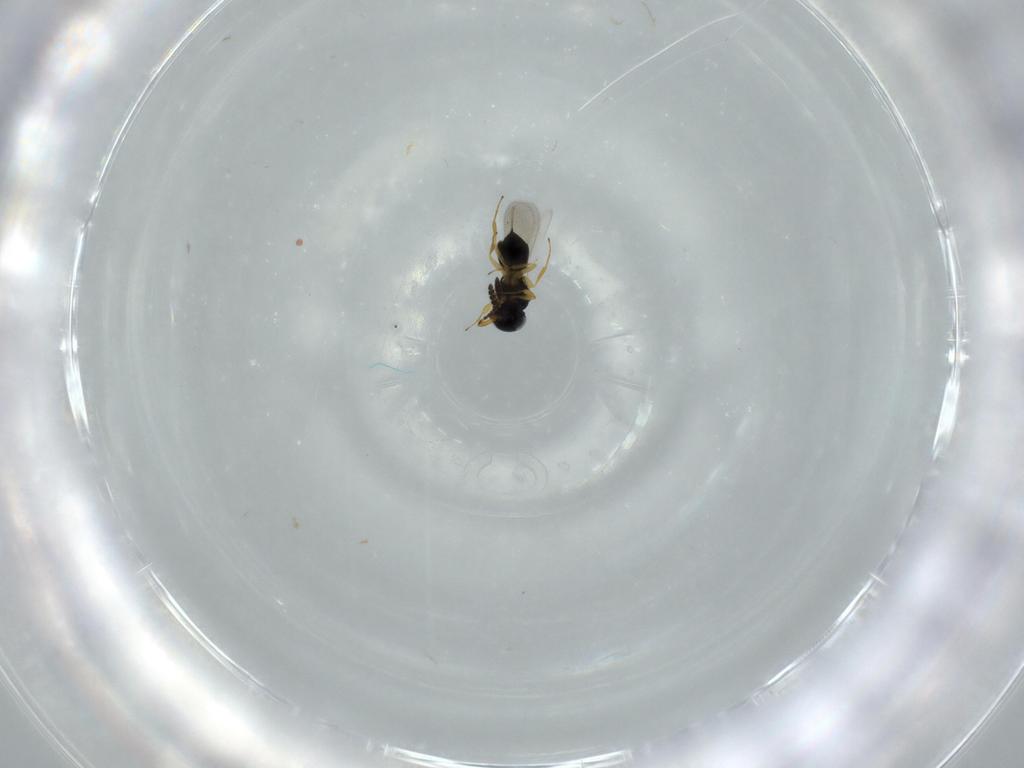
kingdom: Animalia
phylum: Arthropoda
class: Insecta
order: Hymenoptera
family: Scelionidae
